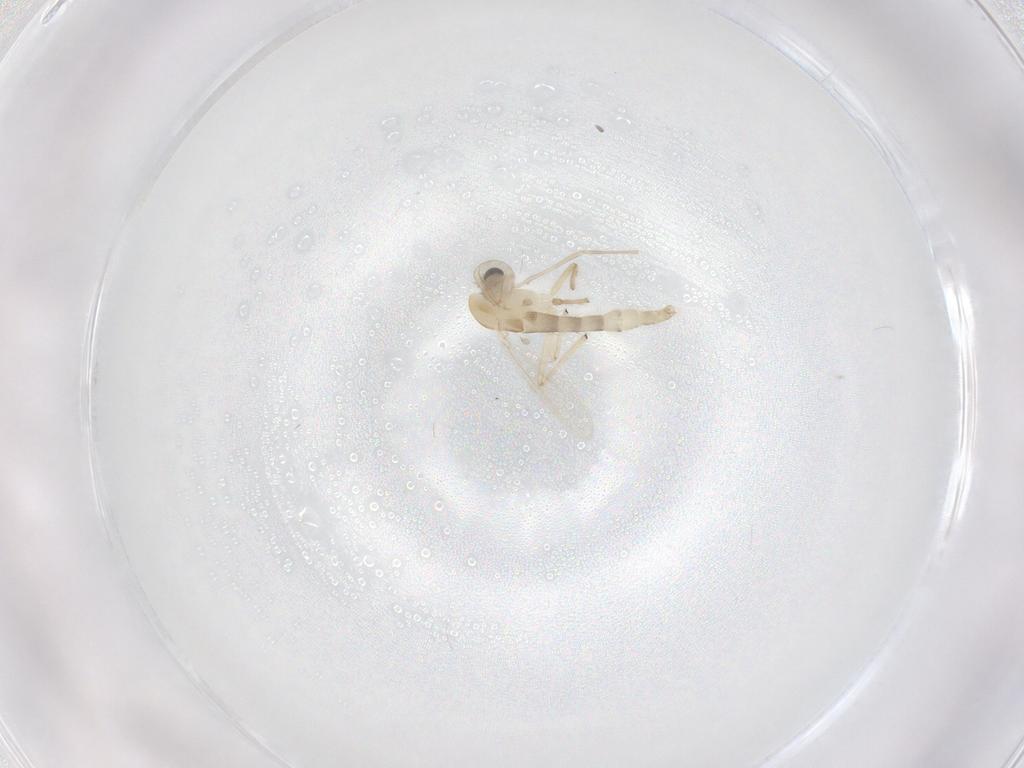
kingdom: Animalia
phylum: Arthropoda
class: Insecta
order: Diptera
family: Chironomidae
